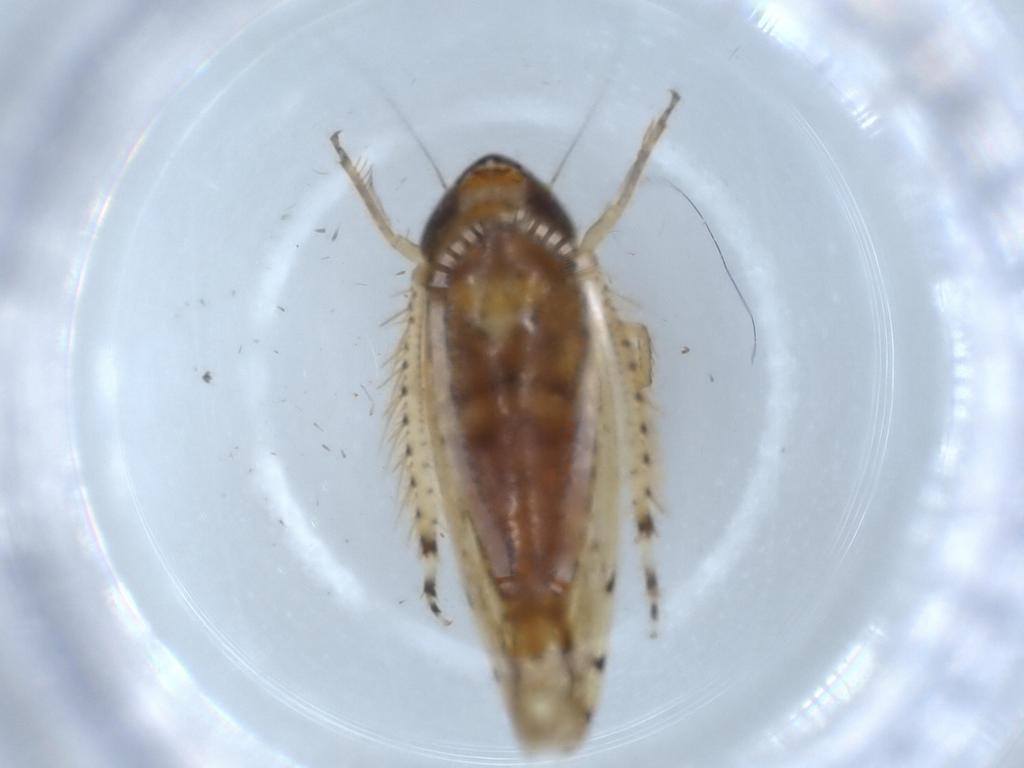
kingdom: Animalia
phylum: Arthropoda
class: Insecta
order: Hemiptera
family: Cicadellidae
